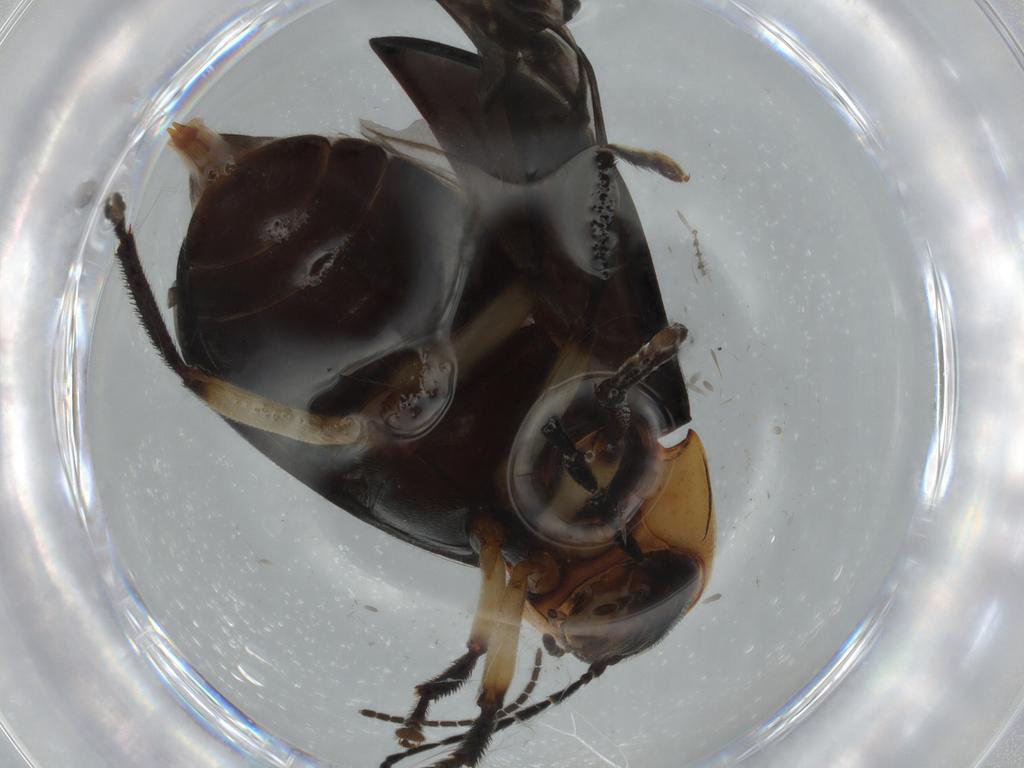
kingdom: Animalia
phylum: Arthropoda
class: Insecta
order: Coleoptera
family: Ptilodactylidae
